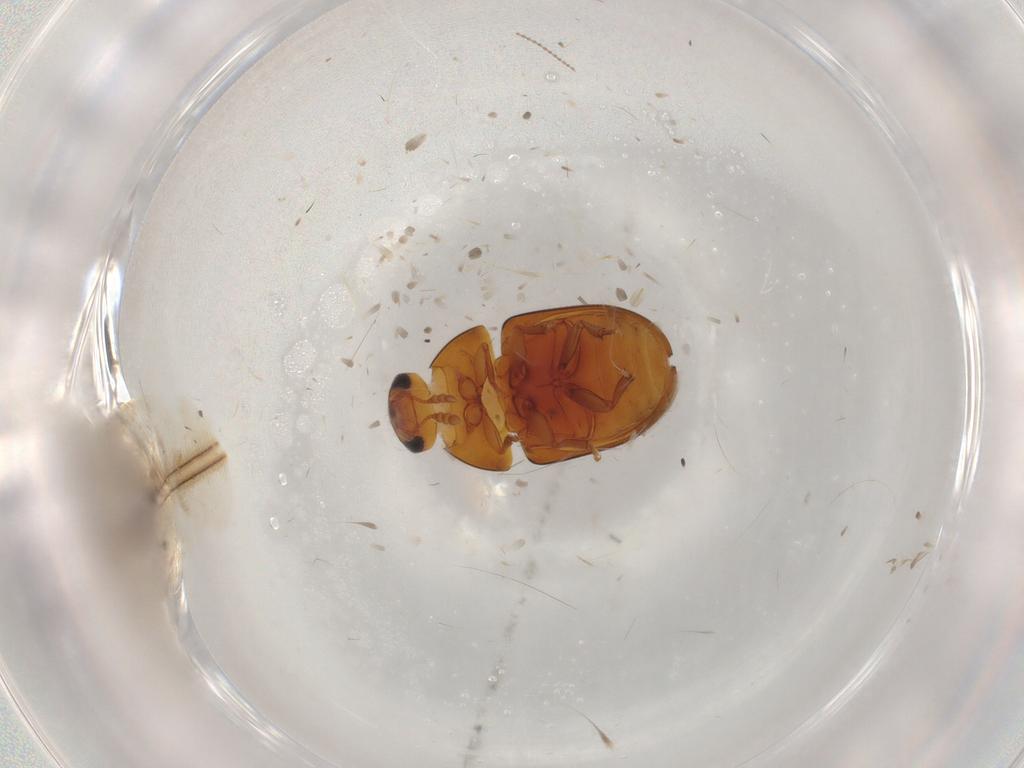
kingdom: Animalia
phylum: Arthropoda
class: Insecta
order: Coleoptera
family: Phalacridae
